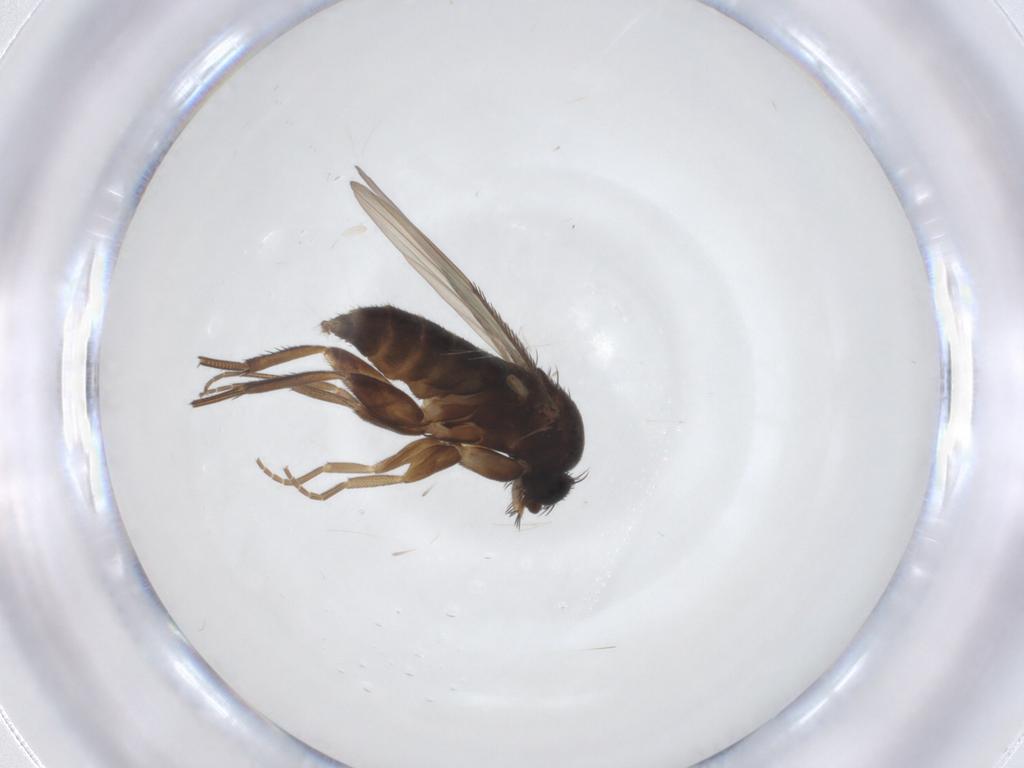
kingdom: Animalia
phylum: Arthropoda
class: Insecta
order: Diptera
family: Phoridae
